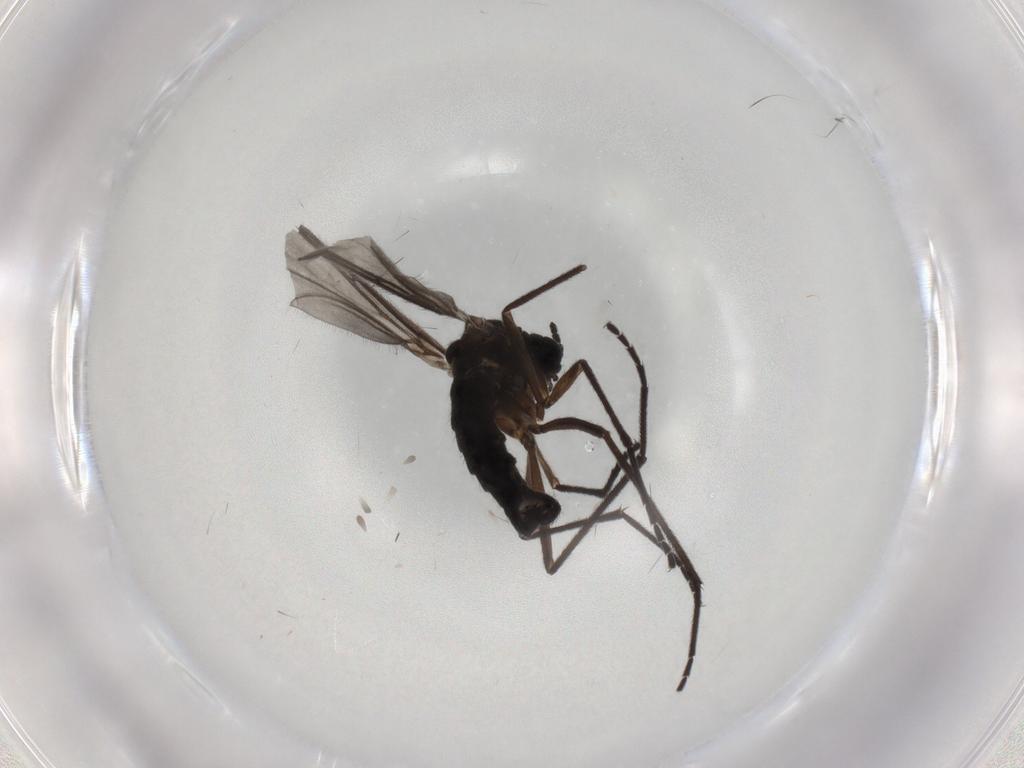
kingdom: Animalia
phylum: Arthropoda
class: Insecta
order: Diptera
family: Sciaridae
